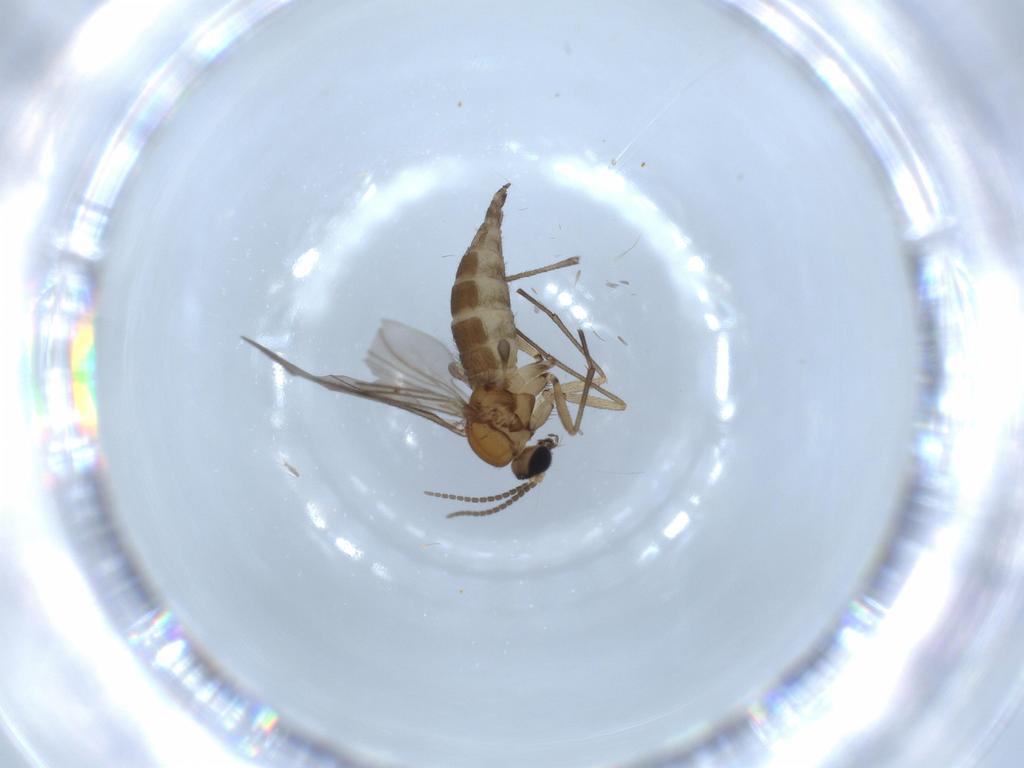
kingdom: Animalia
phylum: Arthropoda
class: Insecta
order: Diptera
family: Sciaridae
